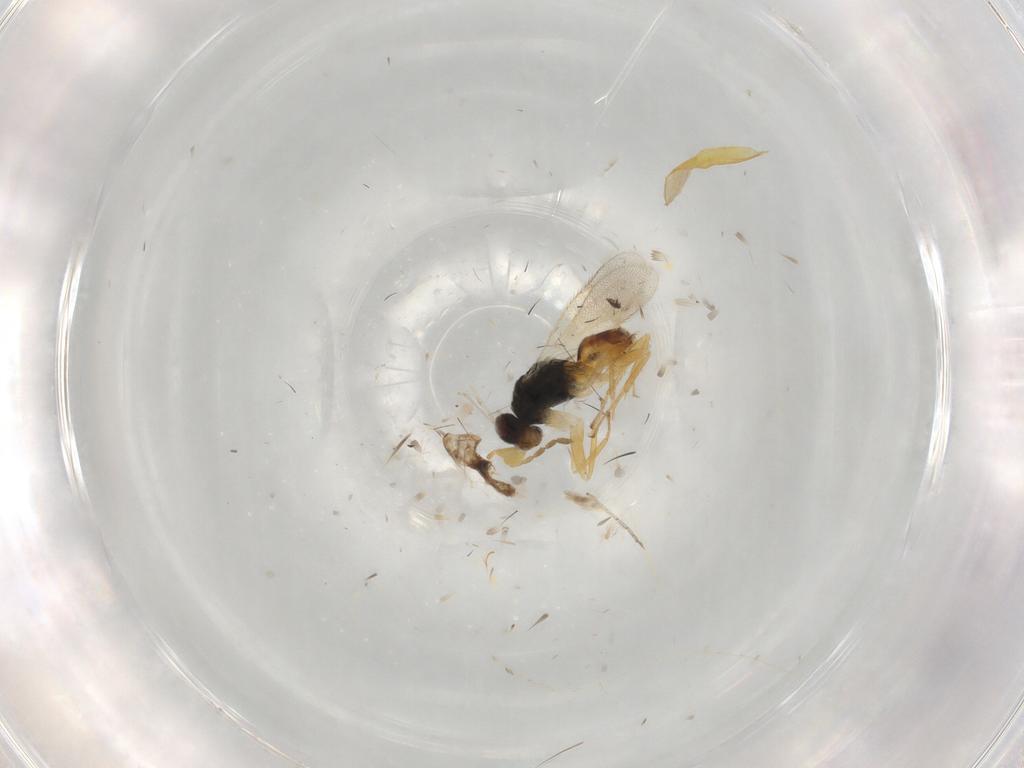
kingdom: Animalia
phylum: Arthropoda
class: Insecta
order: Hymenoptera
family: Eulophidae
